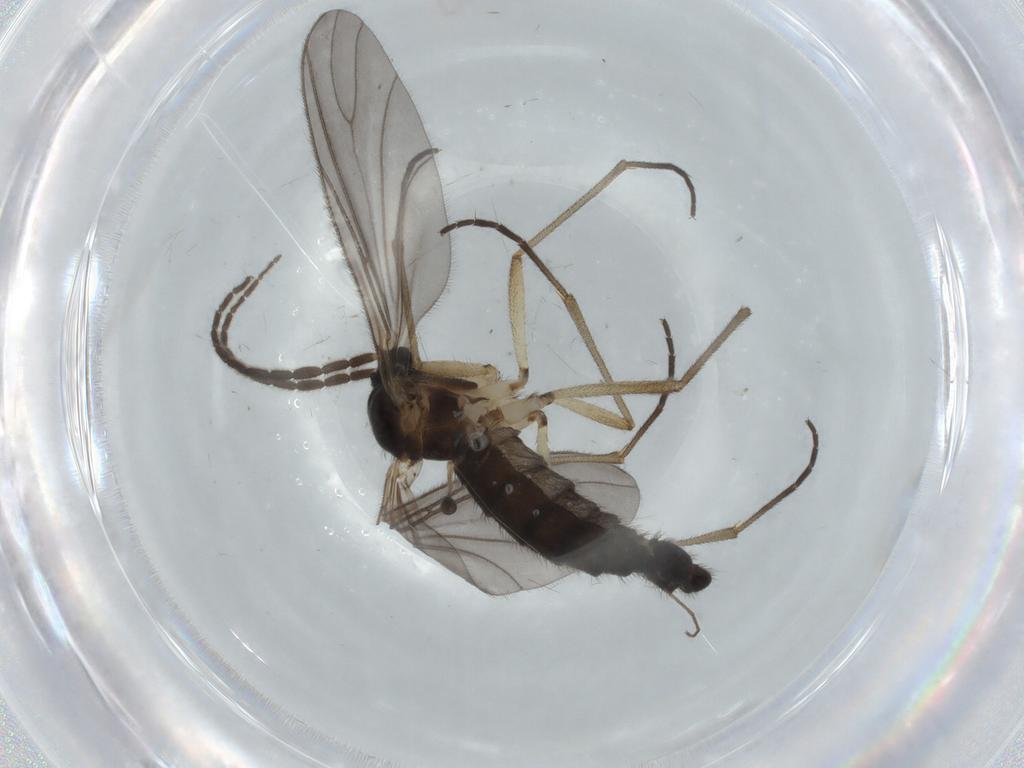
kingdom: Animalia
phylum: Arthropoda
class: Insecta
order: Diptera
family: Sciaridae
